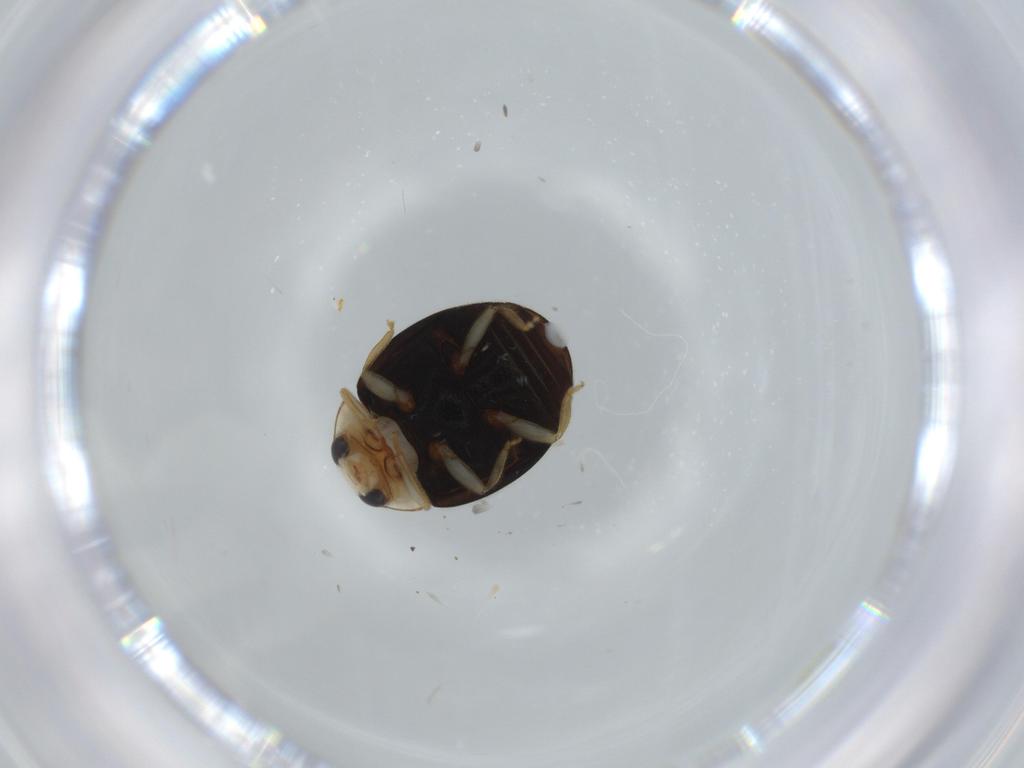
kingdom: Animalia
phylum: Arthropoda
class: Insecta
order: Coleoptera
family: Coccinellidae
